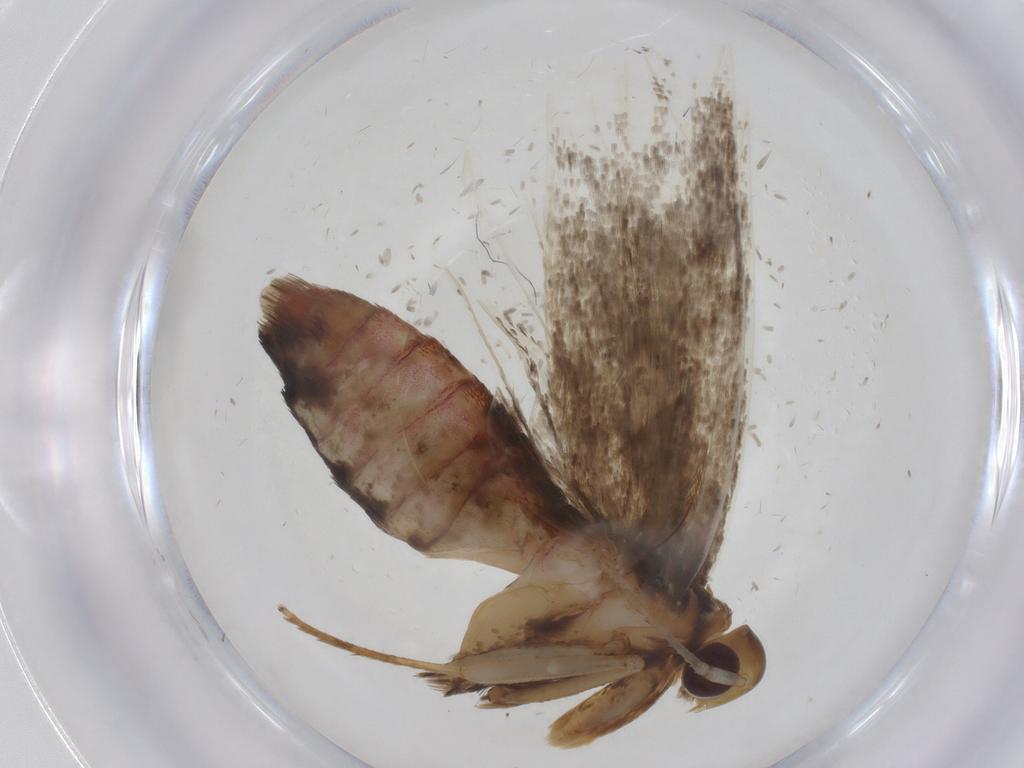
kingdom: Animalia
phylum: Arthropoda
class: Insecta
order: Lepidoptera
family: Lecithoceridae
